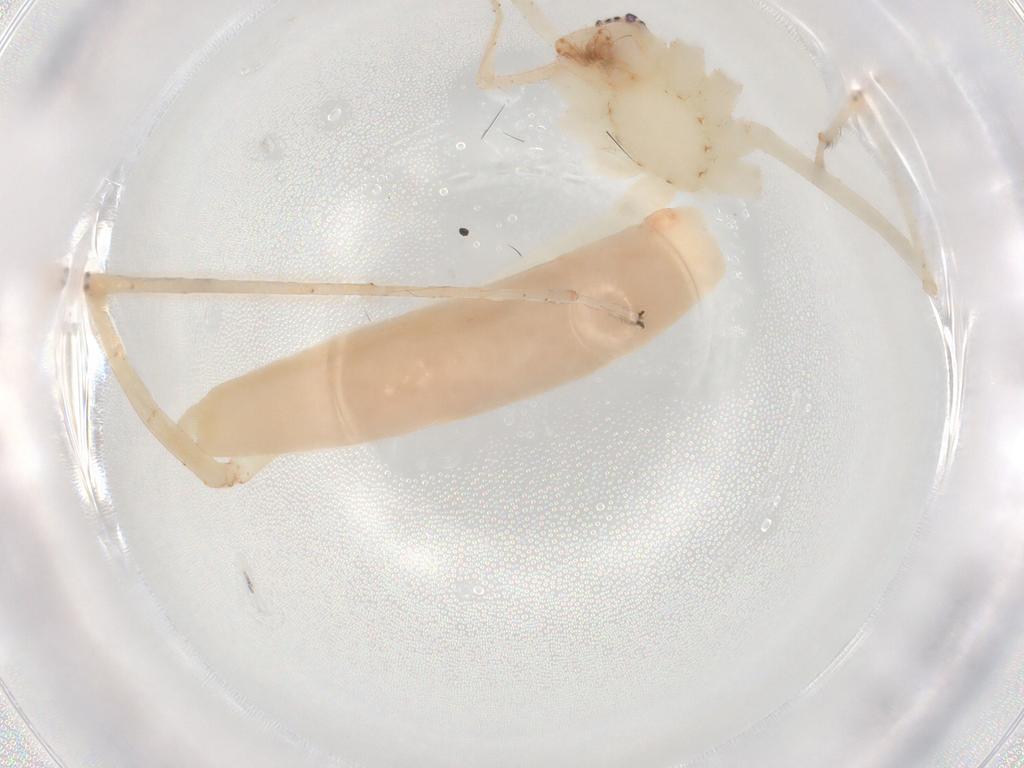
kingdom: Animalia
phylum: Arthropoda
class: Arachnida
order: Araneae
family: Anyphaenidae
